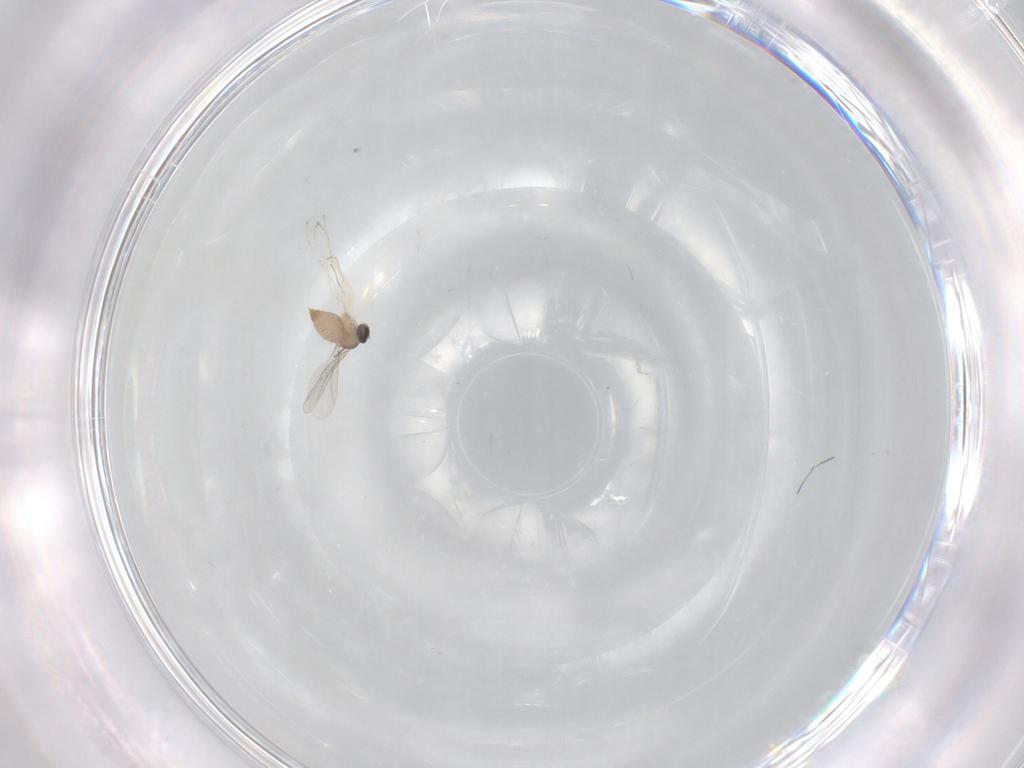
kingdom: Animalia
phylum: Arthropoda
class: Insecta
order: Diptera
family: Cecidomyiidae
